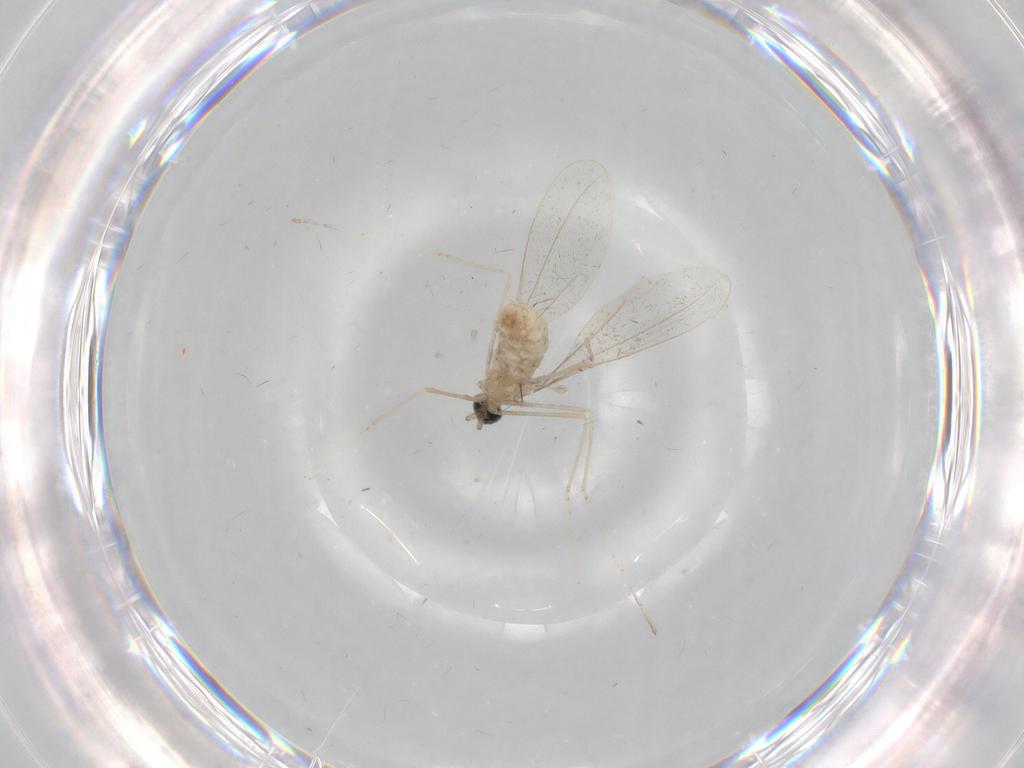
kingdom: Animalia
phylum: Arthropoda
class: Insecta
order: Diptera
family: Cecidomyiidae
